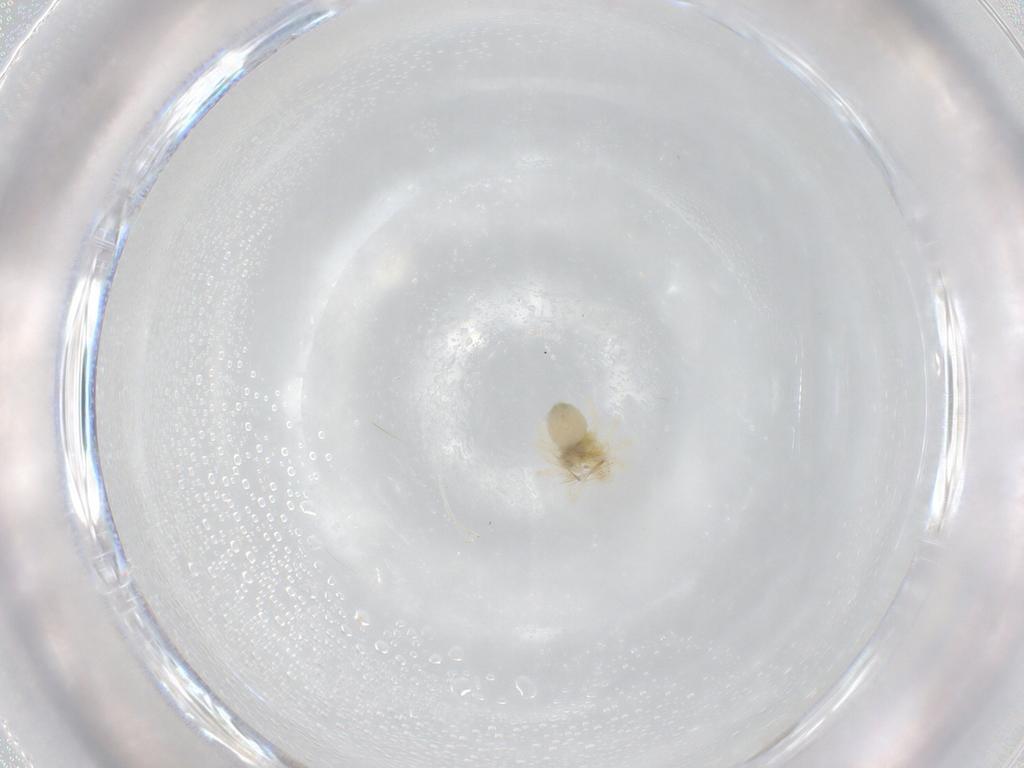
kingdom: Animalia
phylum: Arthropoda
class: Arachnida
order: Trombidiformes
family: Anystidae
